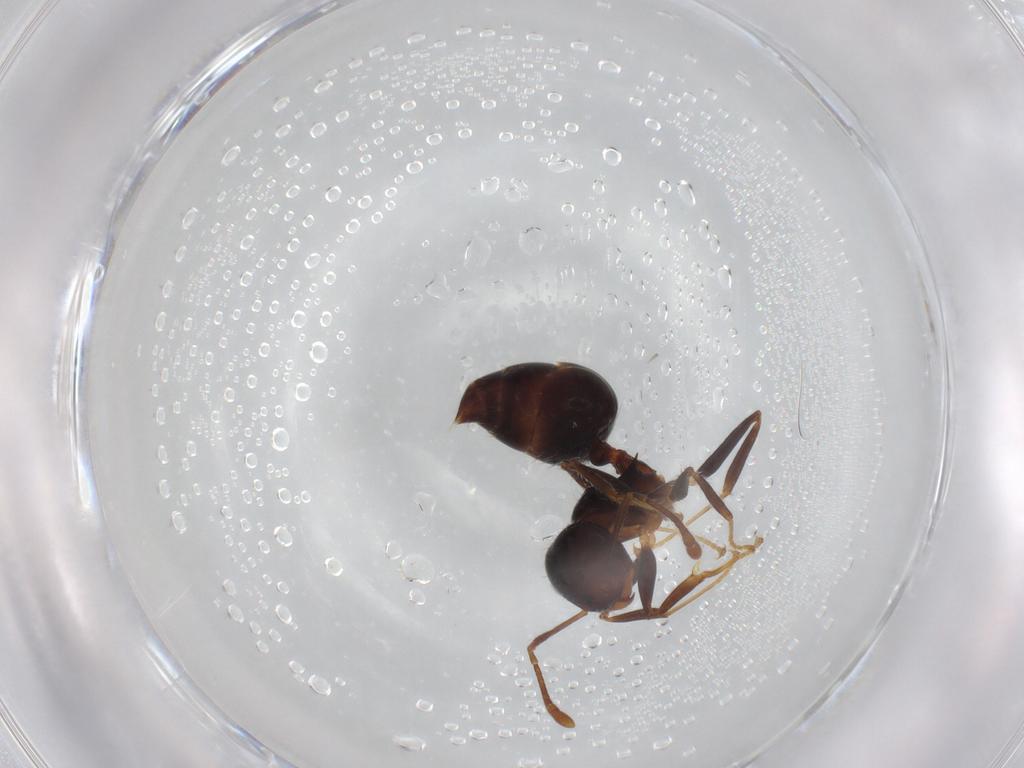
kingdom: Animalia
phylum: Arthropoda
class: Insecta
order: Hymenoptera
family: Formicidae
